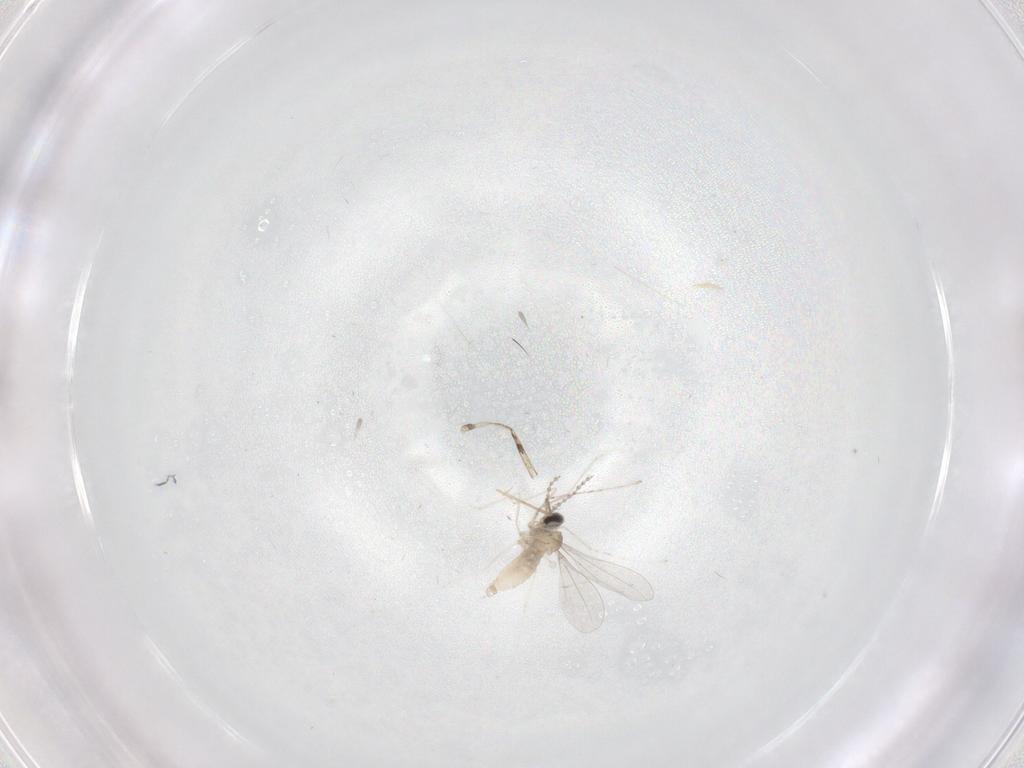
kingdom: Animalia
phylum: Arthropoda
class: Insecta
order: Diptera
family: Cecidomyiidae
